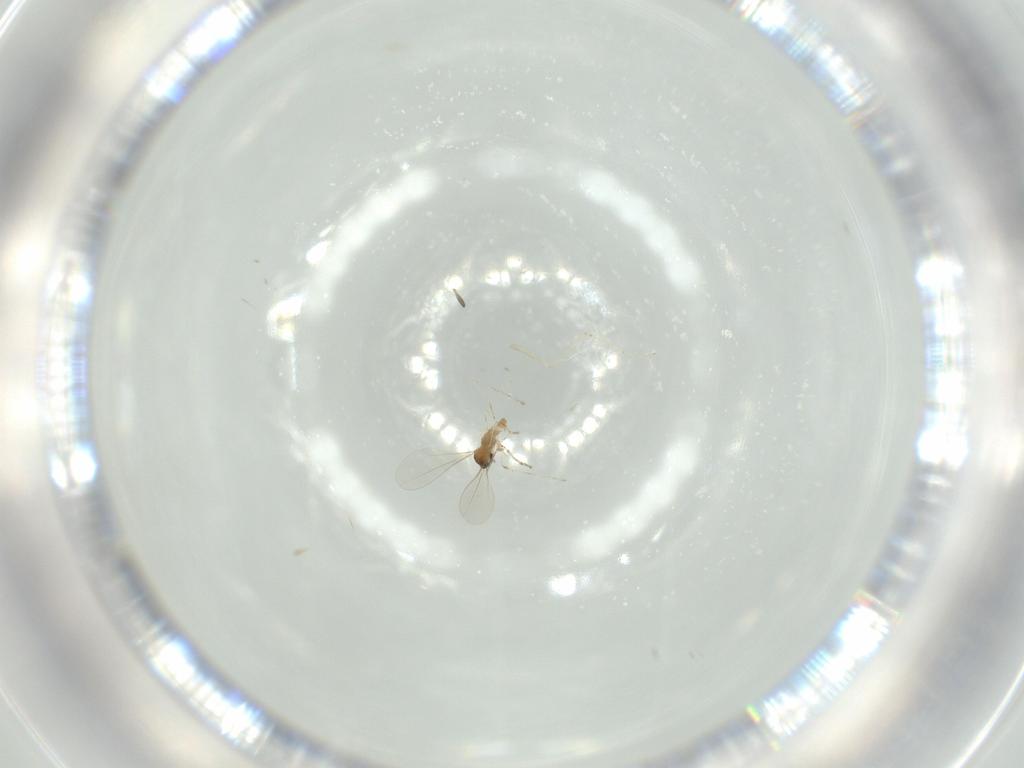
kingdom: Animalia
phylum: Arthropoda
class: Insecta
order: Diptera
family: Cecidomyiidae
